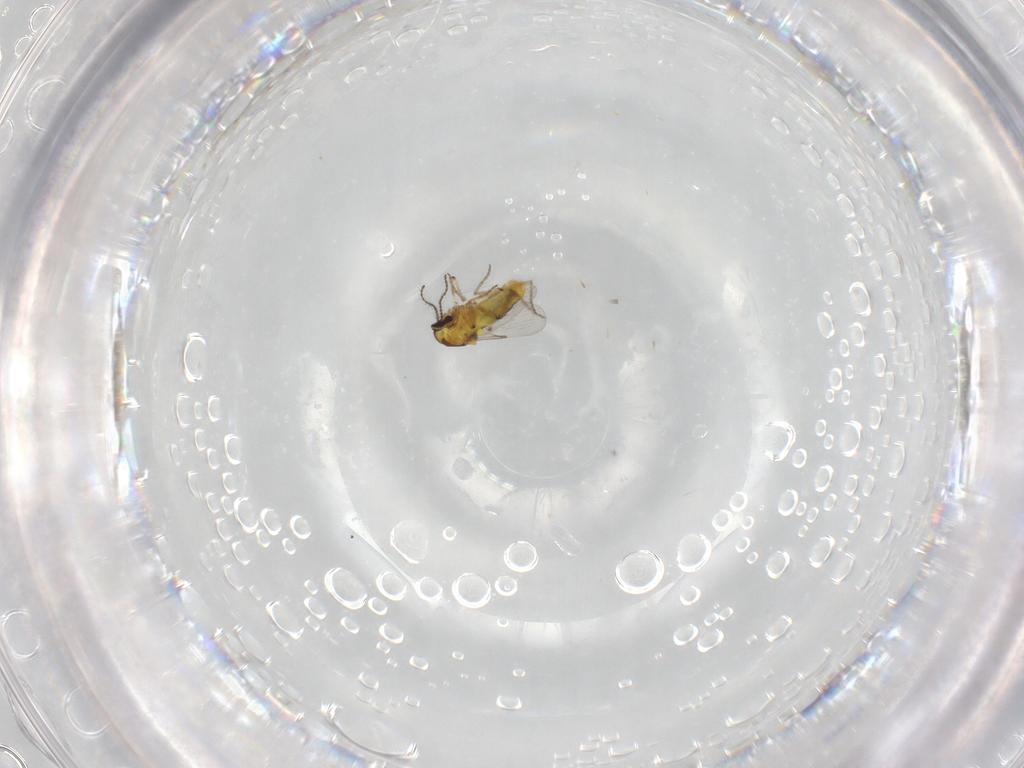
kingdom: Animalia
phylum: Arthropoda
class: Insecta
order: Diptera
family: Ceratopogonidae
